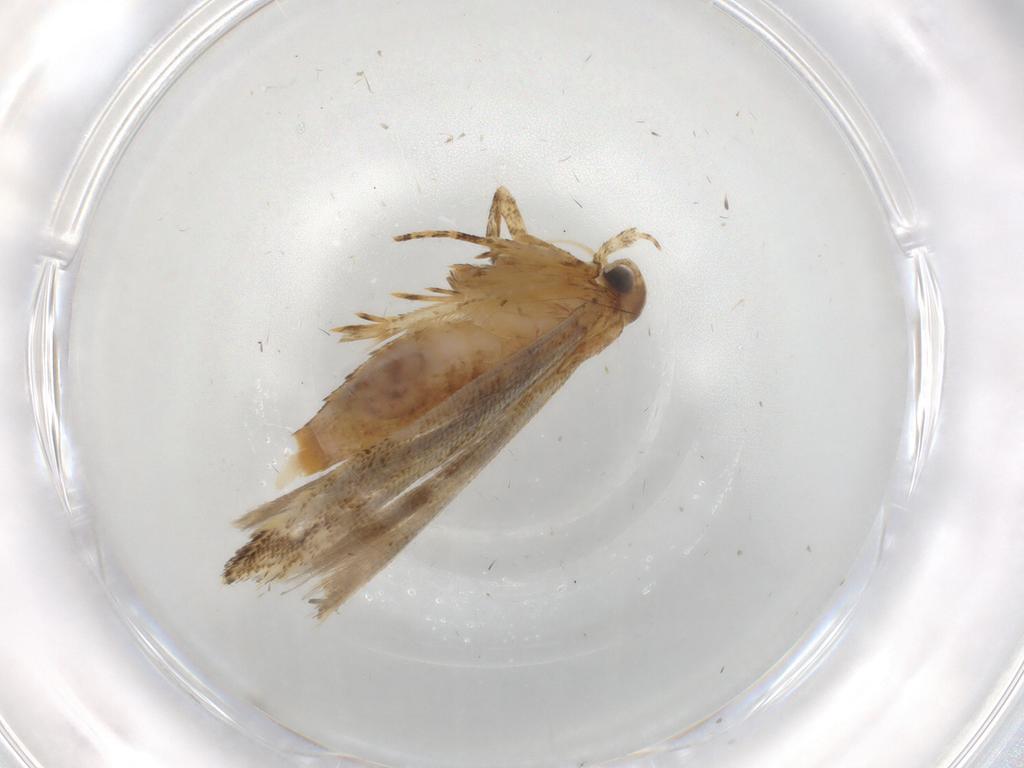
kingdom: Animalia
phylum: Arthropoda
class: Insecta
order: Lepidoptera
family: Gelechiidae
